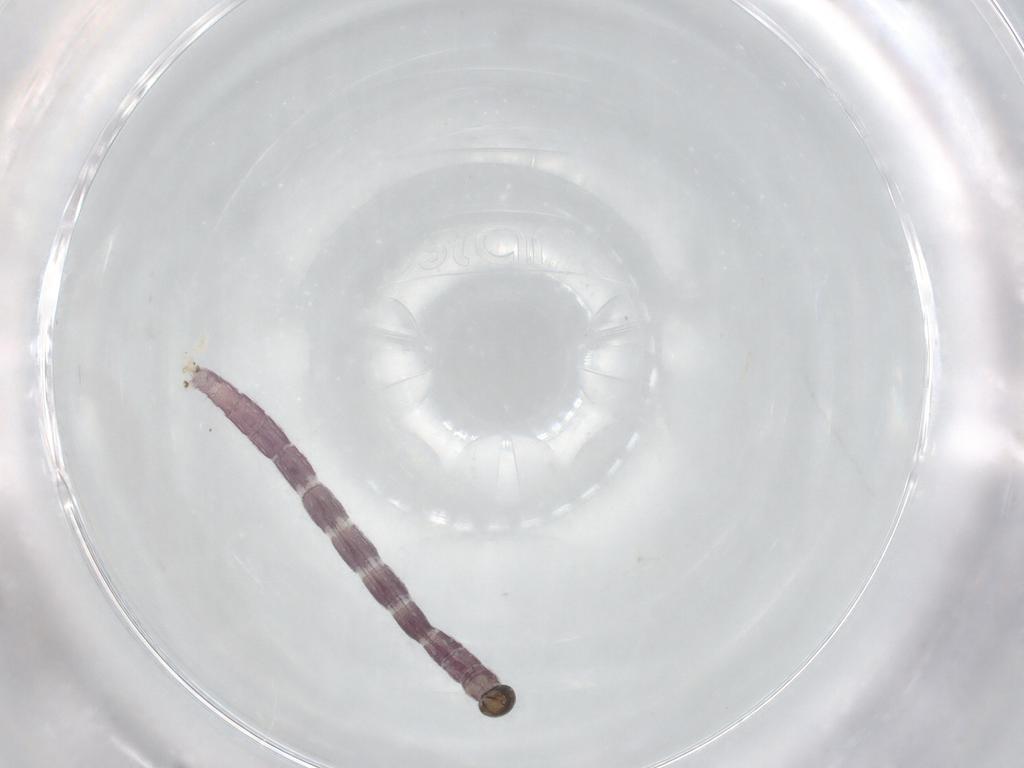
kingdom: Animalia
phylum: Arthropoda
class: Insecta
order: Diptera
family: Chironomidae
